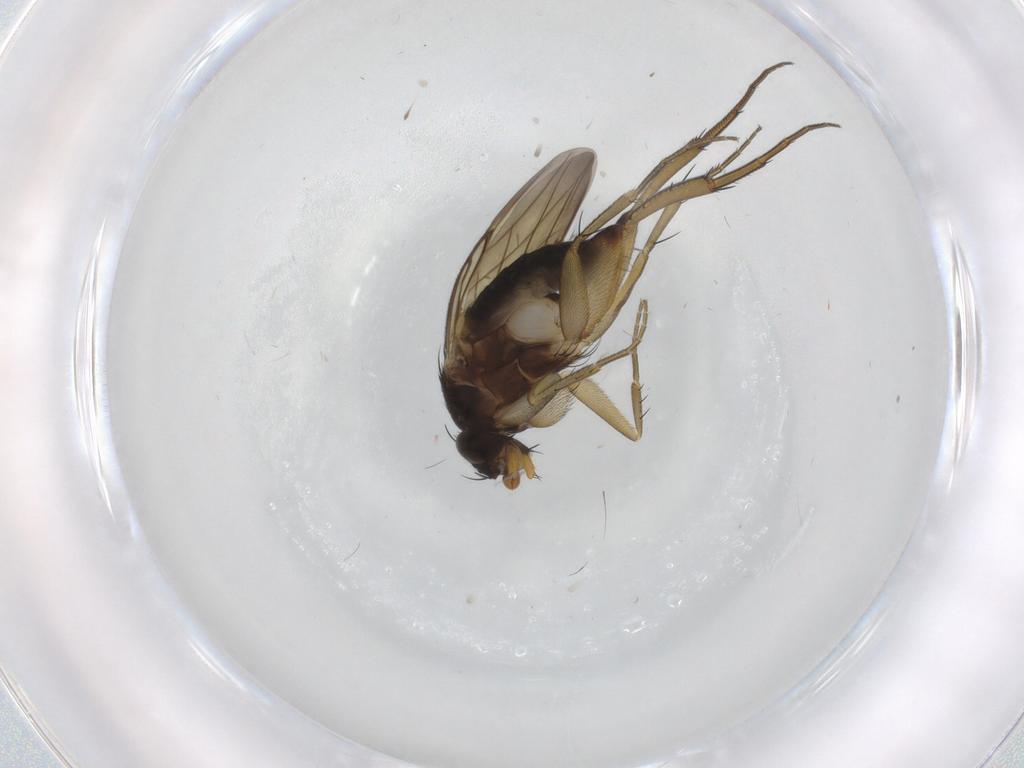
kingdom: Animalia
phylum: Arthropoda
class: Insecta
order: Diptera
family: Phoridae
